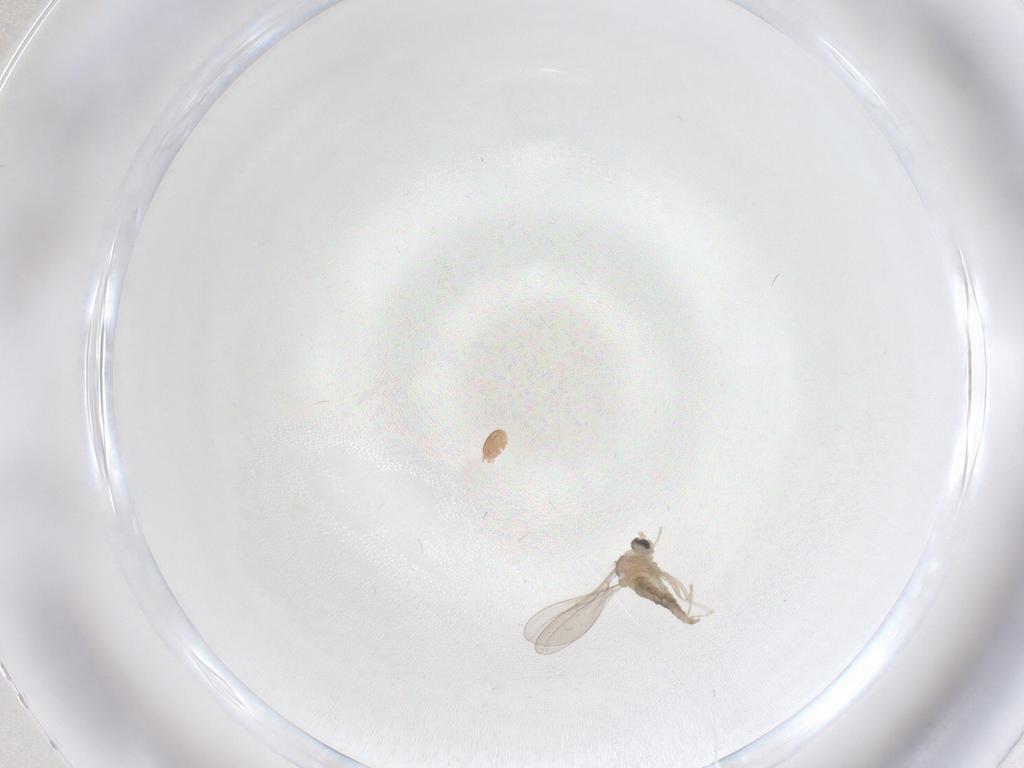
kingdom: Animalia
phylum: Arthropoda
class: Insecta
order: Diptera
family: Cecidomyiidae
